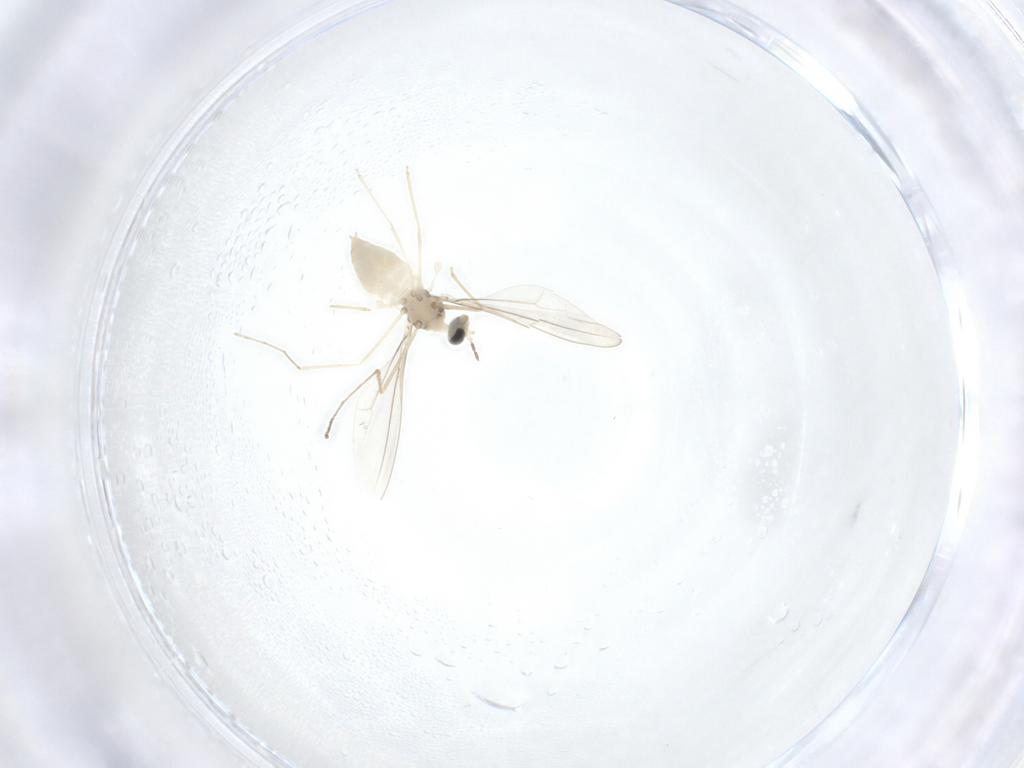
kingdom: Animalia
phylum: Arthropoda
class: Insecta
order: Diptera
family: Phoridae
